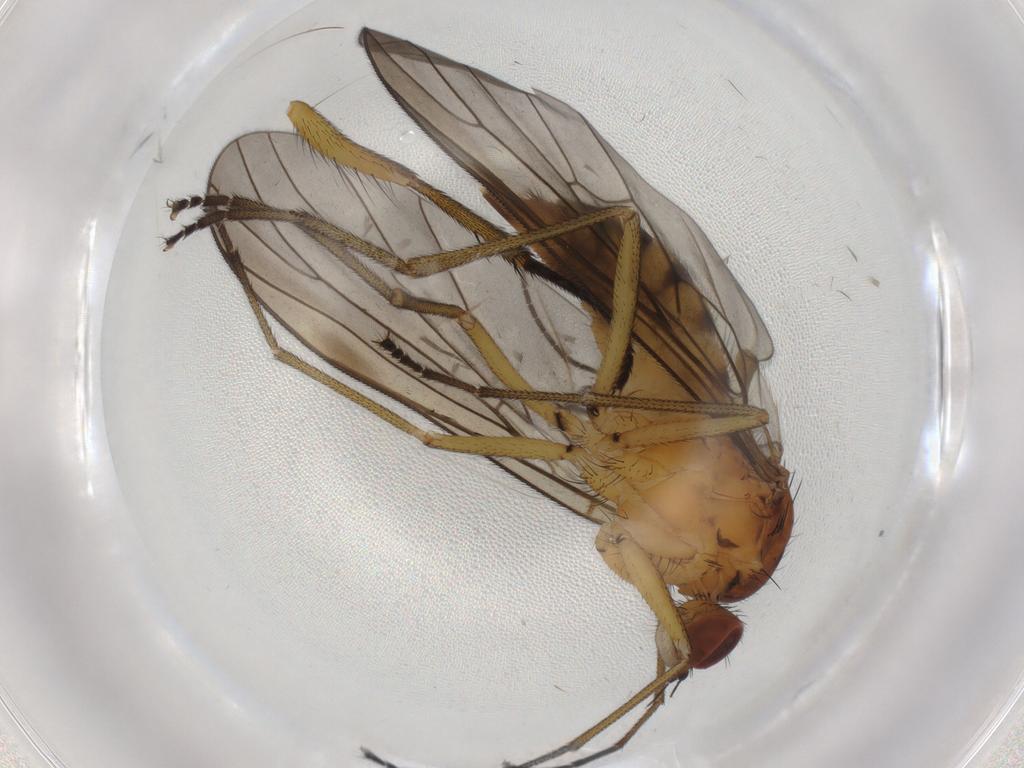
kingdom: Animalia
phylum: Arthropoda
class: Insecta
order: Diptera
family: Brachystomatidae
